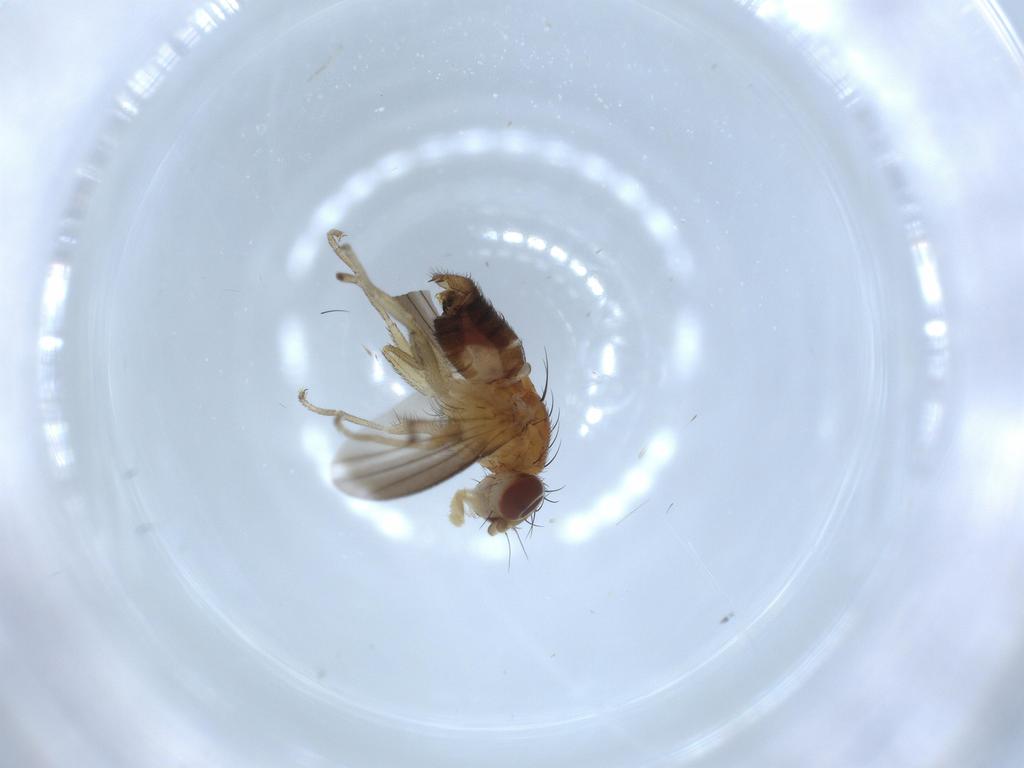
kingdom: Animalia
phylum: Arthropoda
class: Insecta
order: Diptera
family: Heleomyzidae
